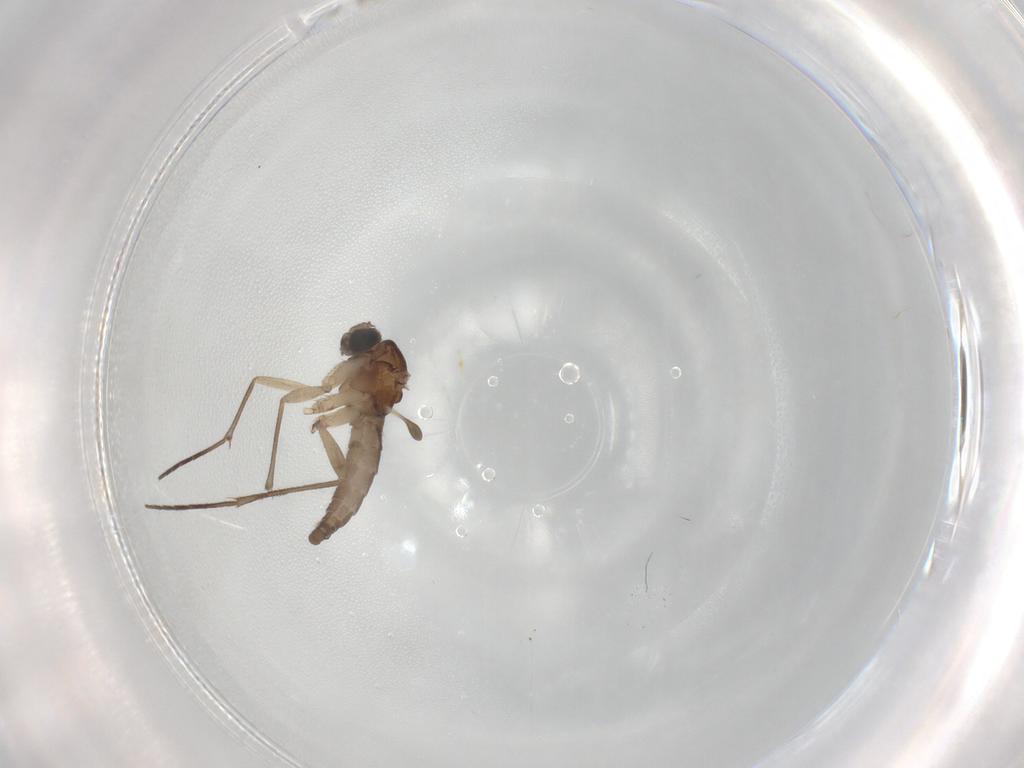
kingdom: Animalia
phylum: Arthropoda
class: Insecta
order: Diptera
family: Sciaridae
